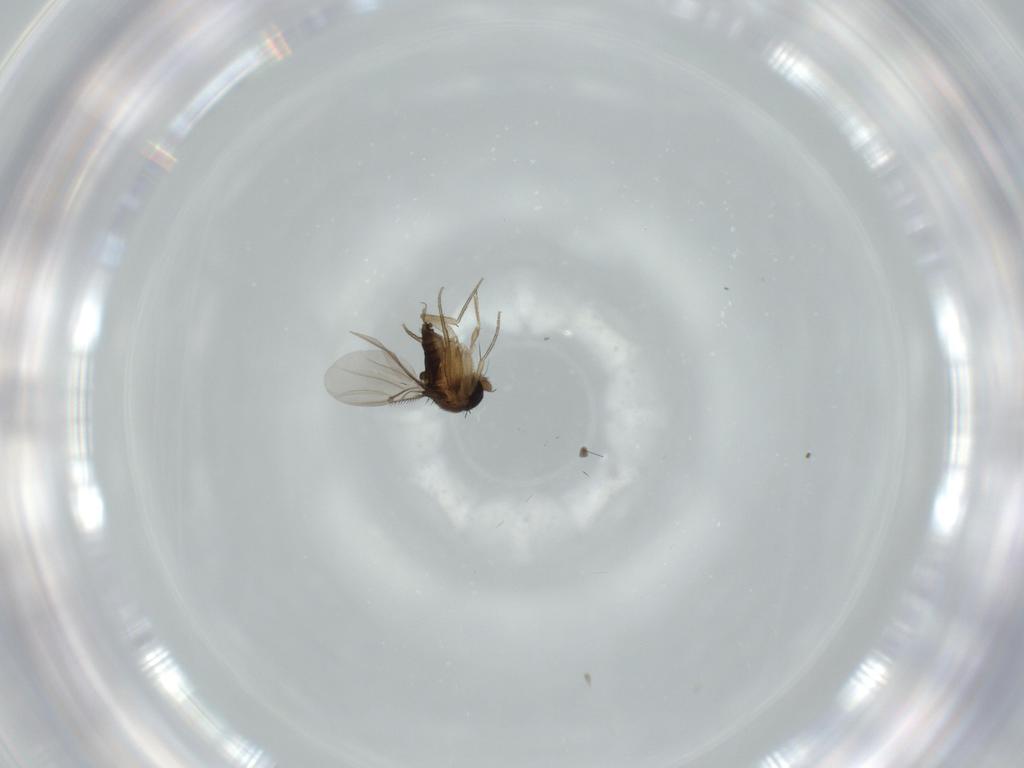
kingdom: Animalia
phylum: Arthropoda
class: Insecta
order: Diptera
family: Phoridae
